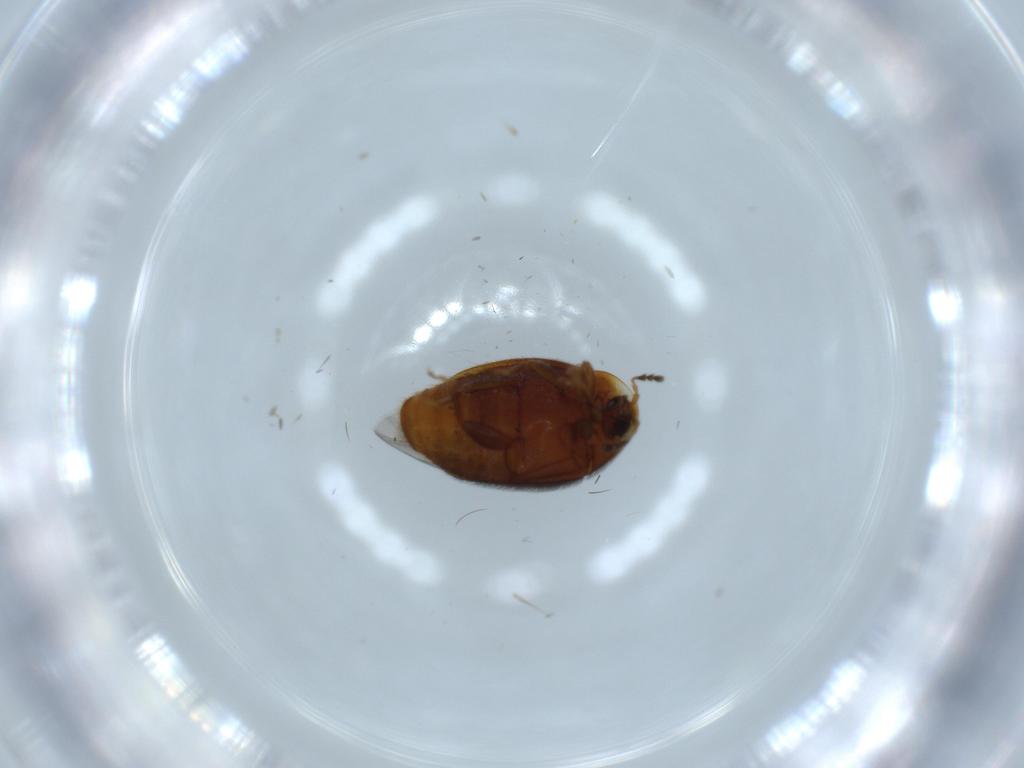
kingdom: Animalia
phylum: Arthropoda
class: Insecta
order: Coleoptera
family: Corylophidae
